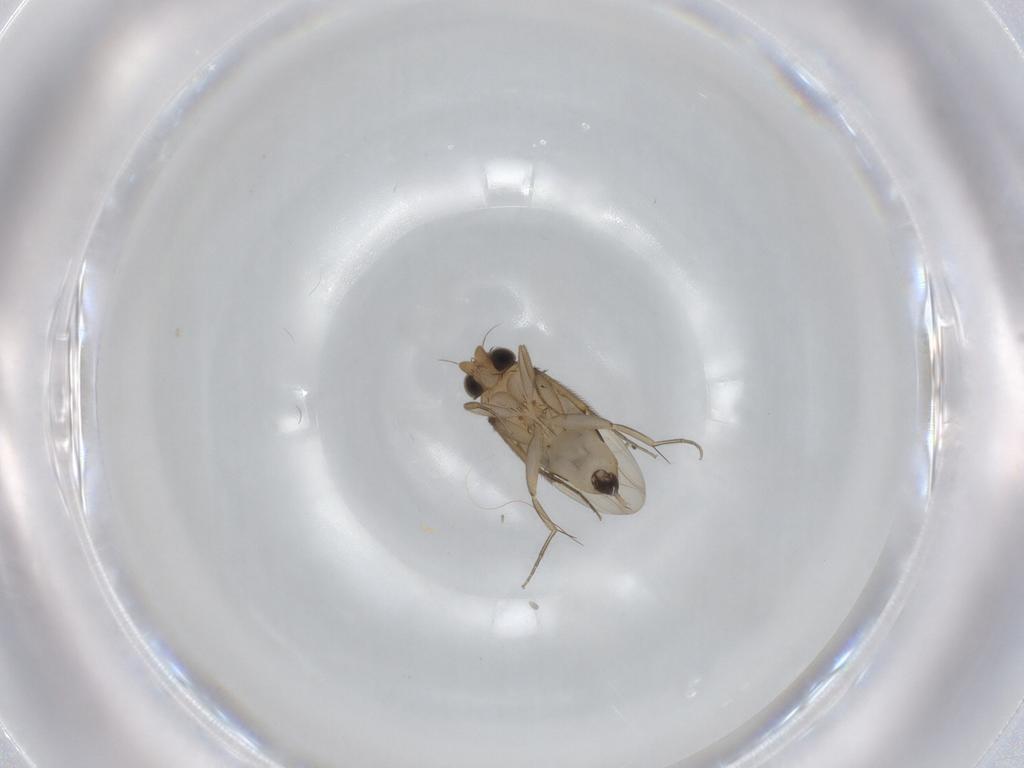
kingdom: Animalia
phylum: Arthropoda
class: Insecta
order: Diptera
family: Phoridae
